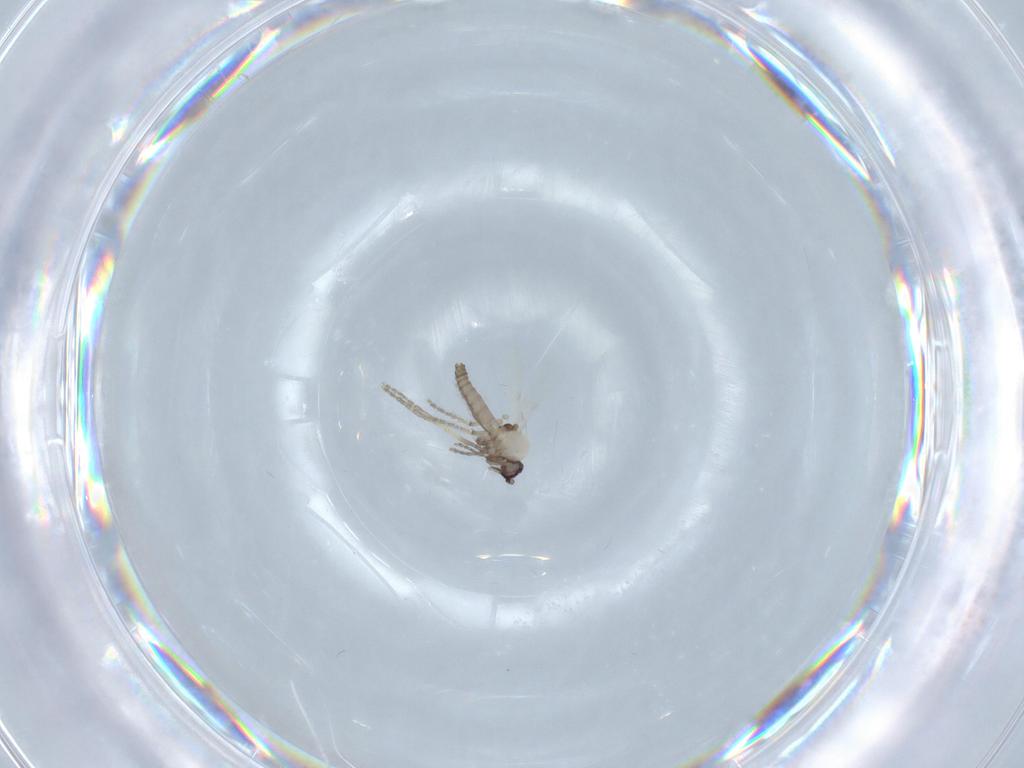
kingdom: Animalia
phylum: Arthropoda
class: Insecta
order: Diptera
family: Ceratopogonidae
